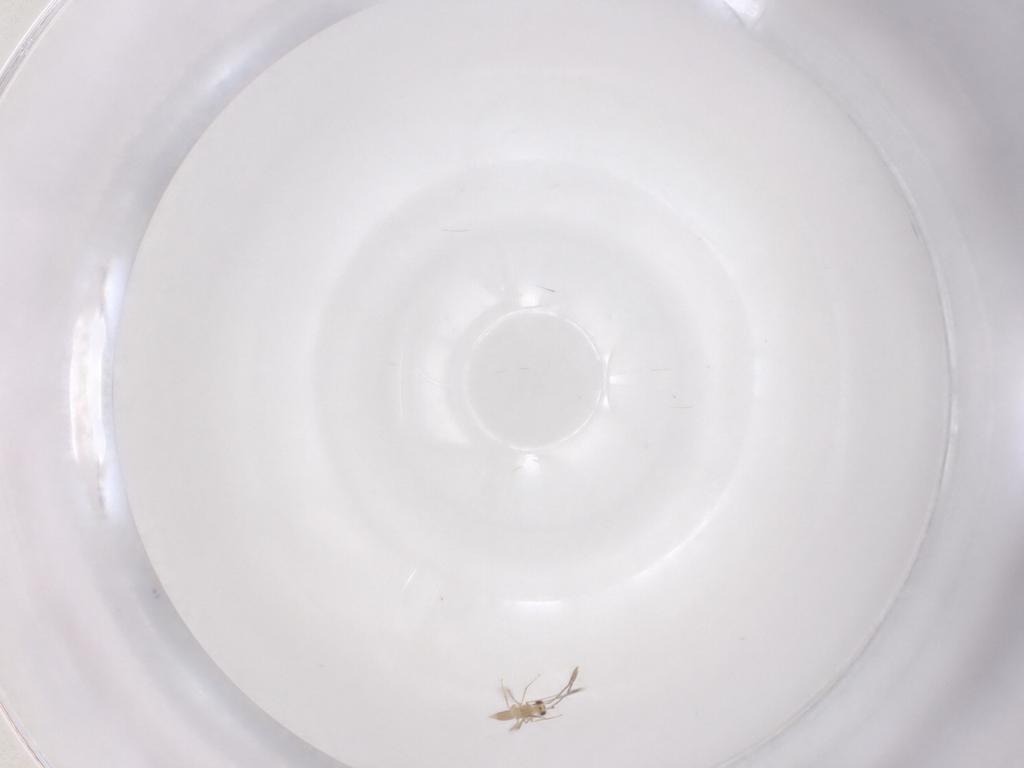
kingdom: Animalia
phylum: Arthropoda
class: Insecta
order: Hymenoptera
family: Mymaridae
